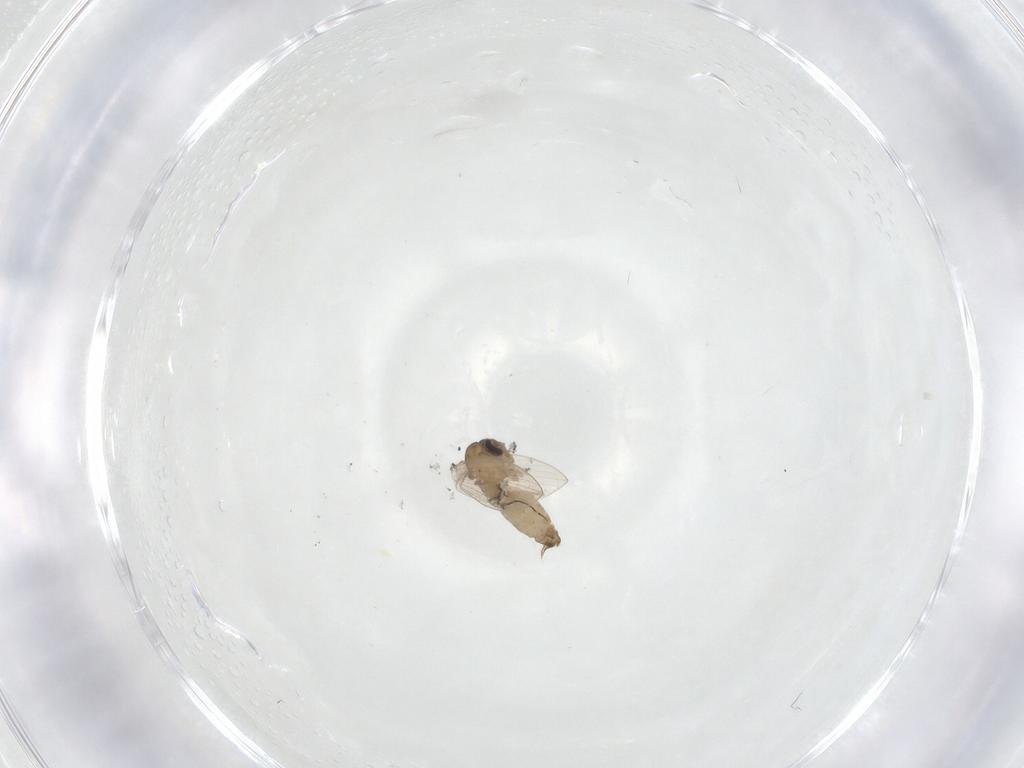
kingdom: Animalia
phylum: Arthropoda
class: Insecta
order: Diptera
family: Psychodidae
